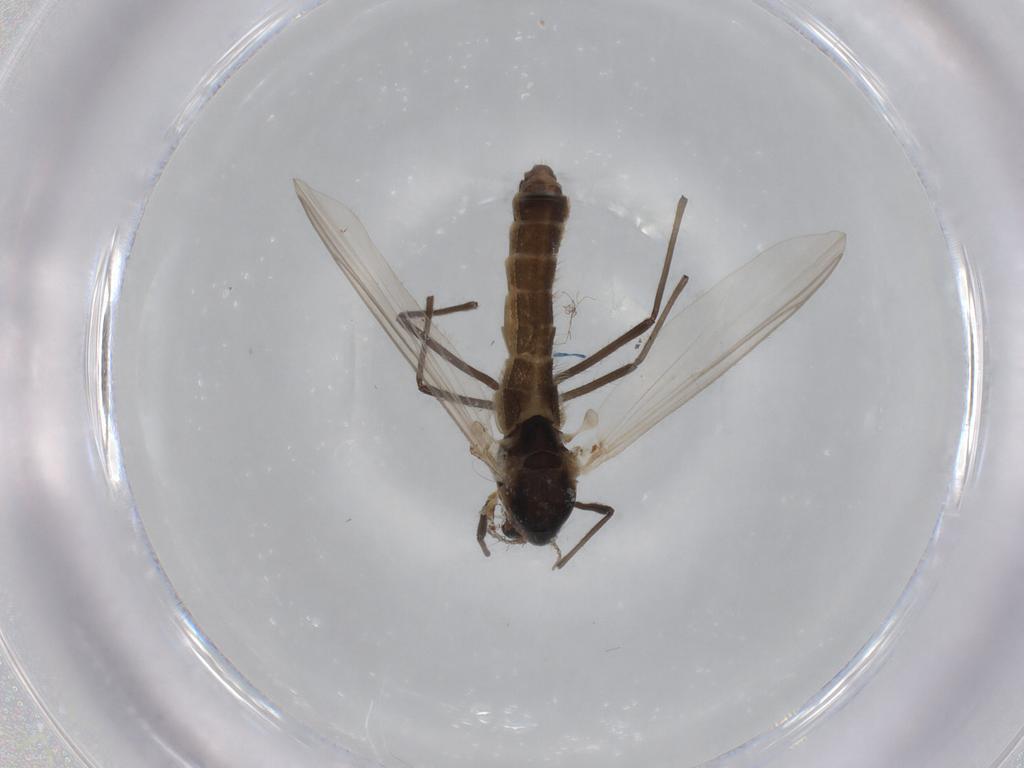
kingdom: Animalia
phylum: Arthropoda
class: Insecta
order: Diptera
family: Chironomidae
